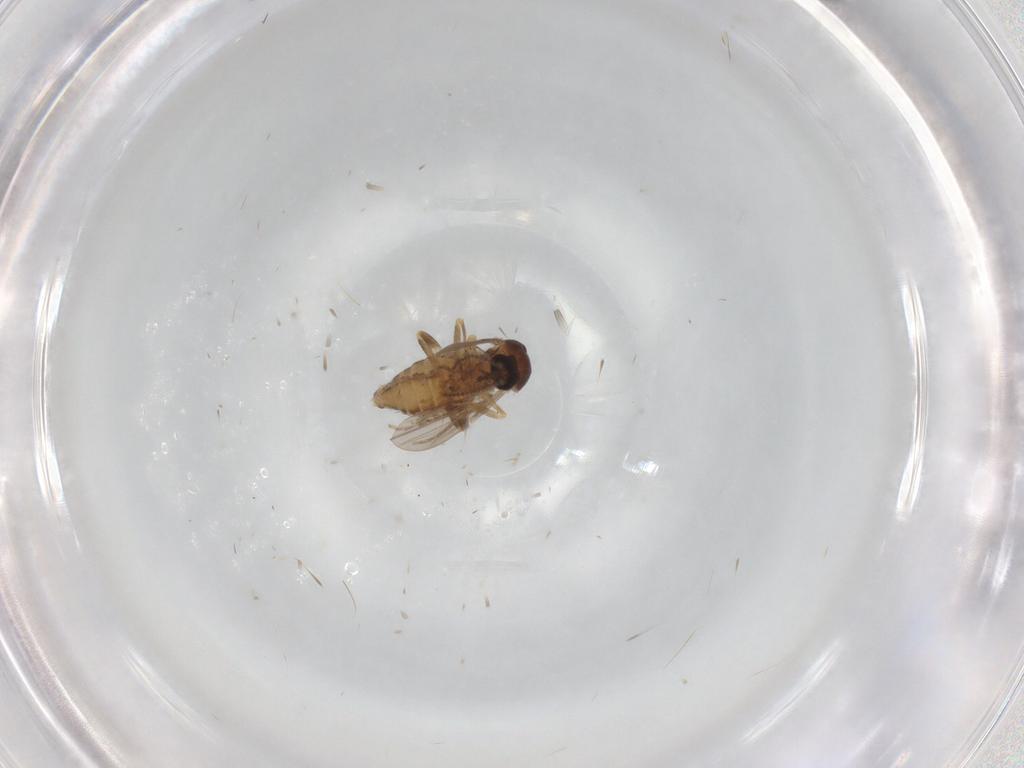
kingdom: Animalia
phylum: Arthropoda
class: Insecta
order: Diptera
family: Ceratopogonidae
